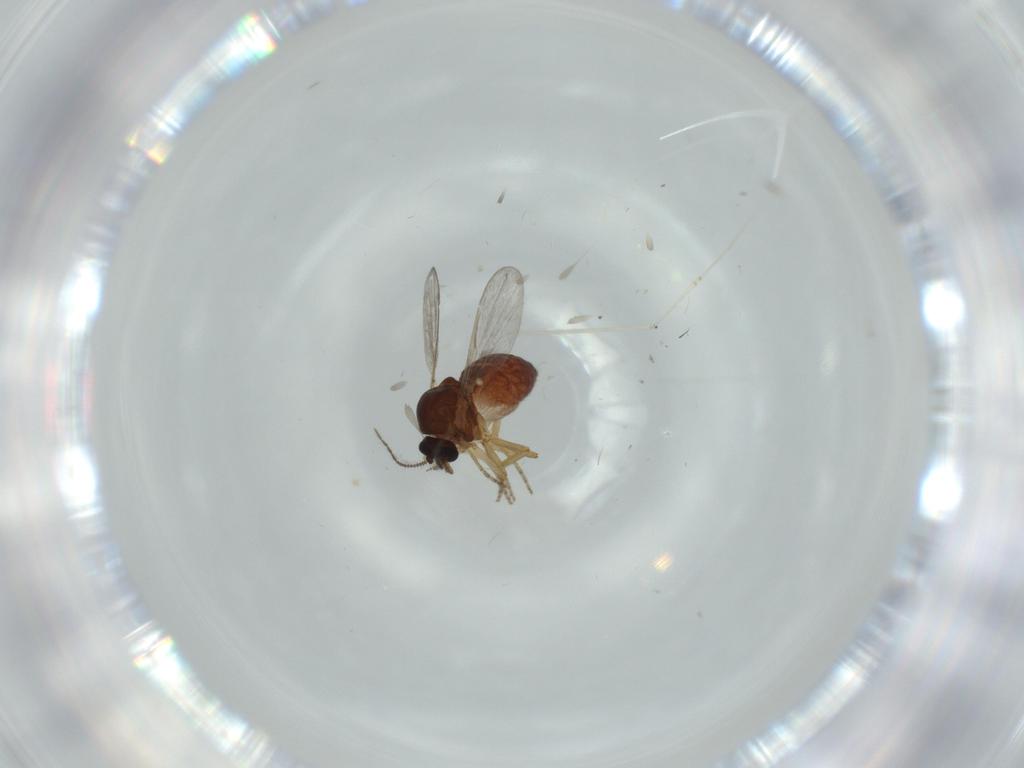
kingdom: Animalia
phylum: Arthropoda
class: Insecta
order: Diptera
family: Ceratopogonidae
